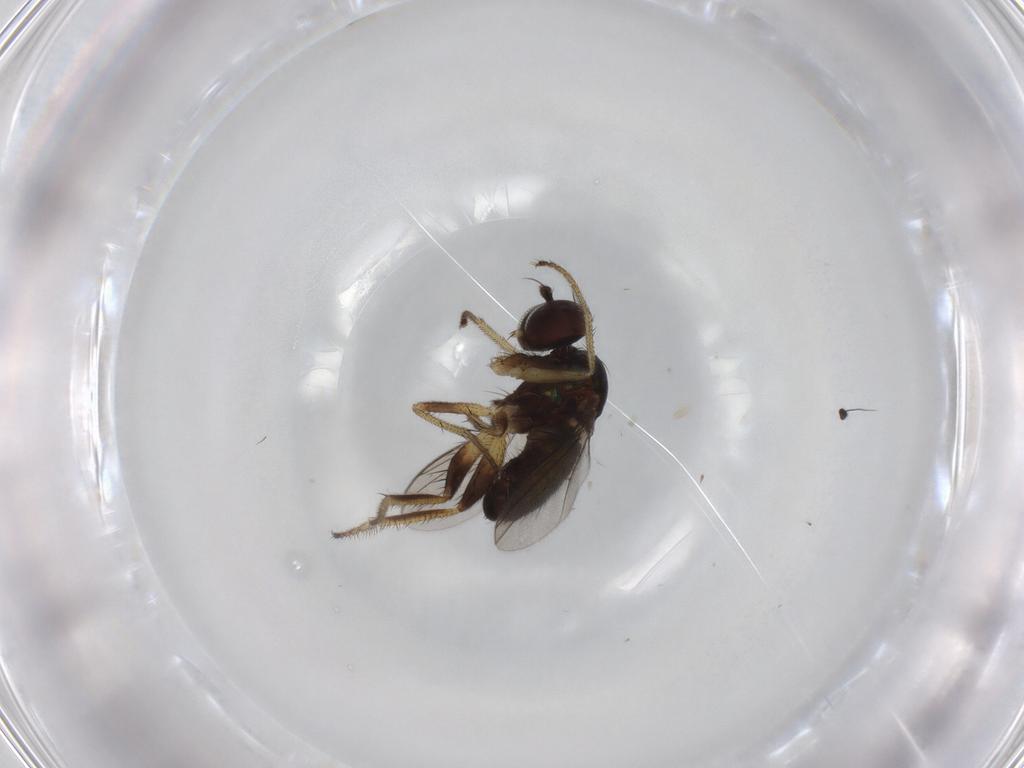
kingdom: Animalia
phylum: Arthropoda
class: Insecta
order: Diptera
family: Dolichopodidae
